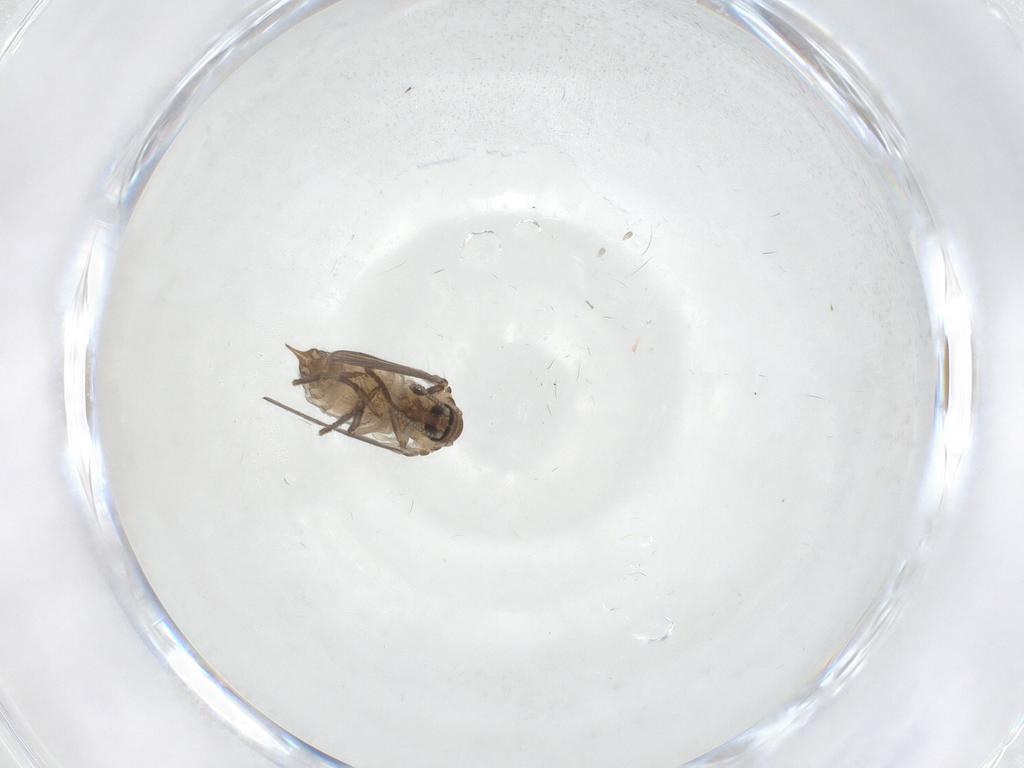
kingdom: Animalia
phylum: Arthropoda
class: Insecta
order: Diptera
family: Ditomyiidae
